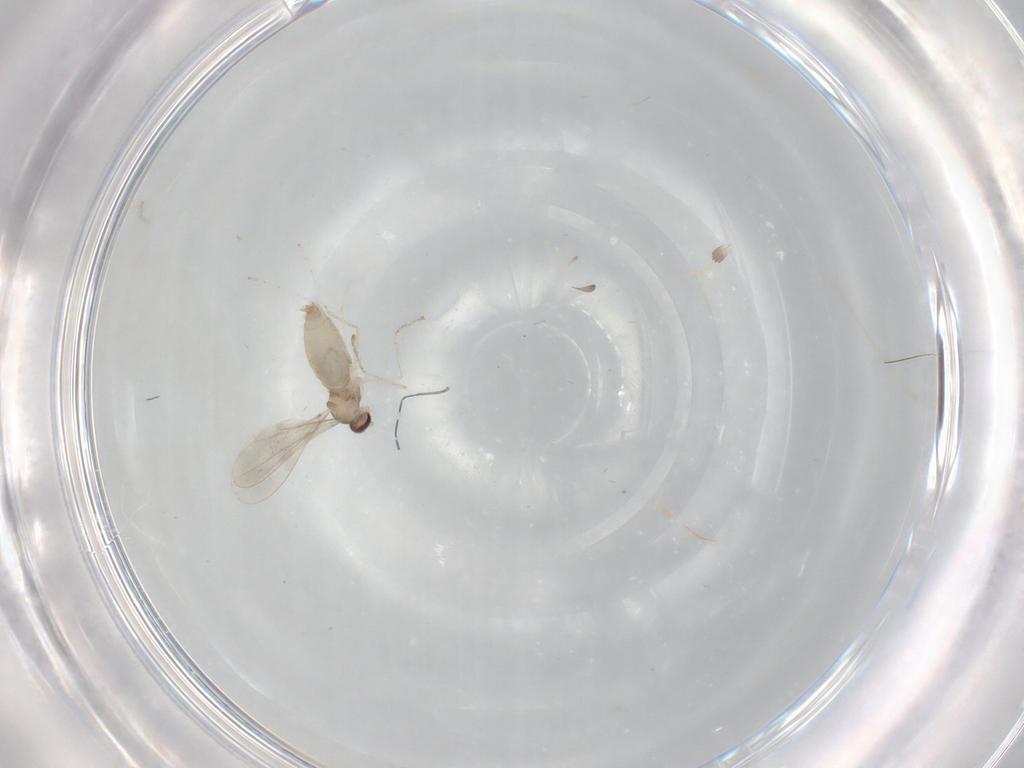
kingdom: Animalia
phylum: Arthropoda
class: Insecta
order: Diptera
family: Cecidomyiidae
